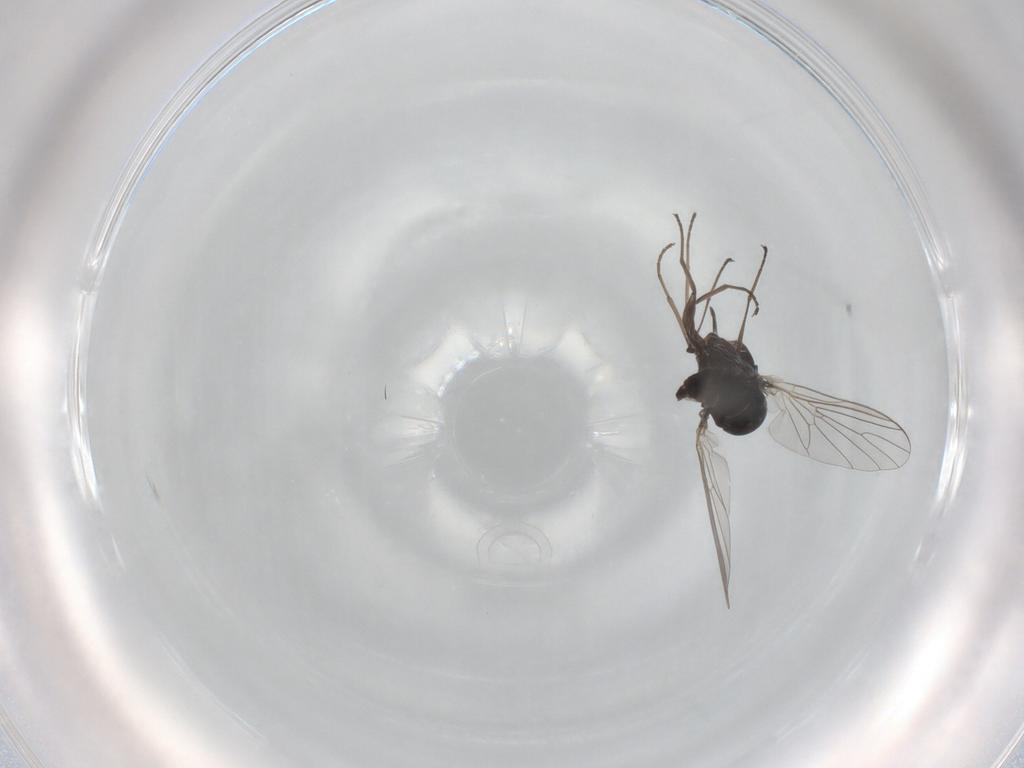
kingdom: Animalia
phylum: Arthropoda
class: Insecta
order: Diptera
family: Bombyliidae
